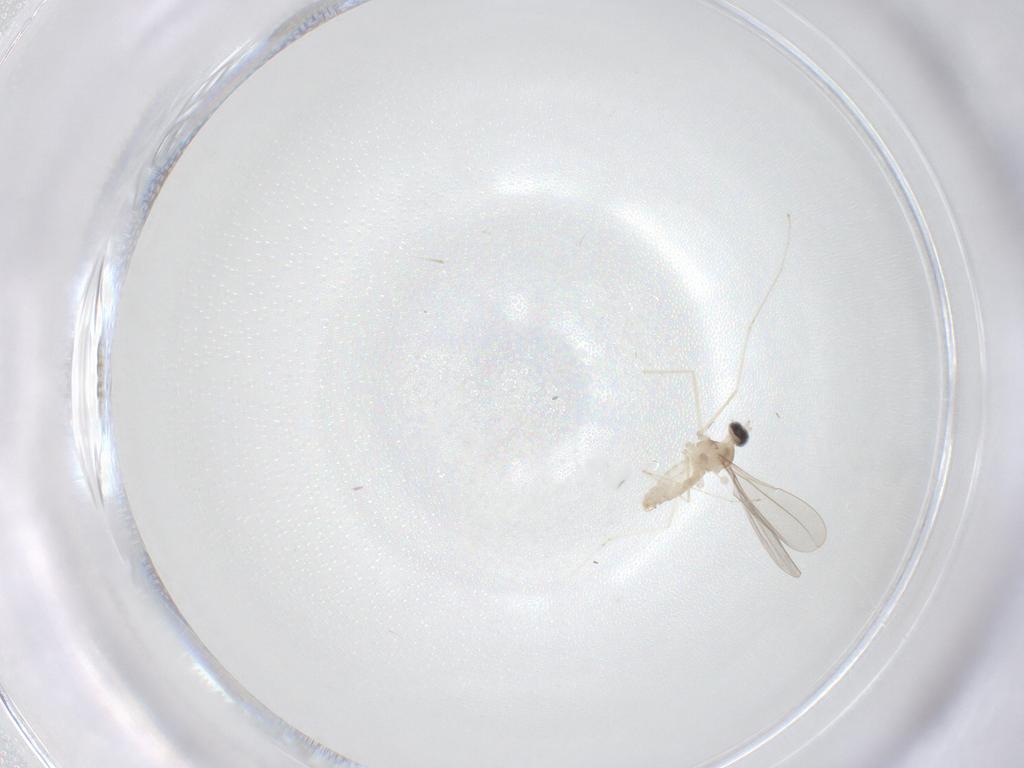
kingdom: Animalia
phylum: Arthropoda
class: Insecta
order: Diptera
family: Cecidomyiidae
